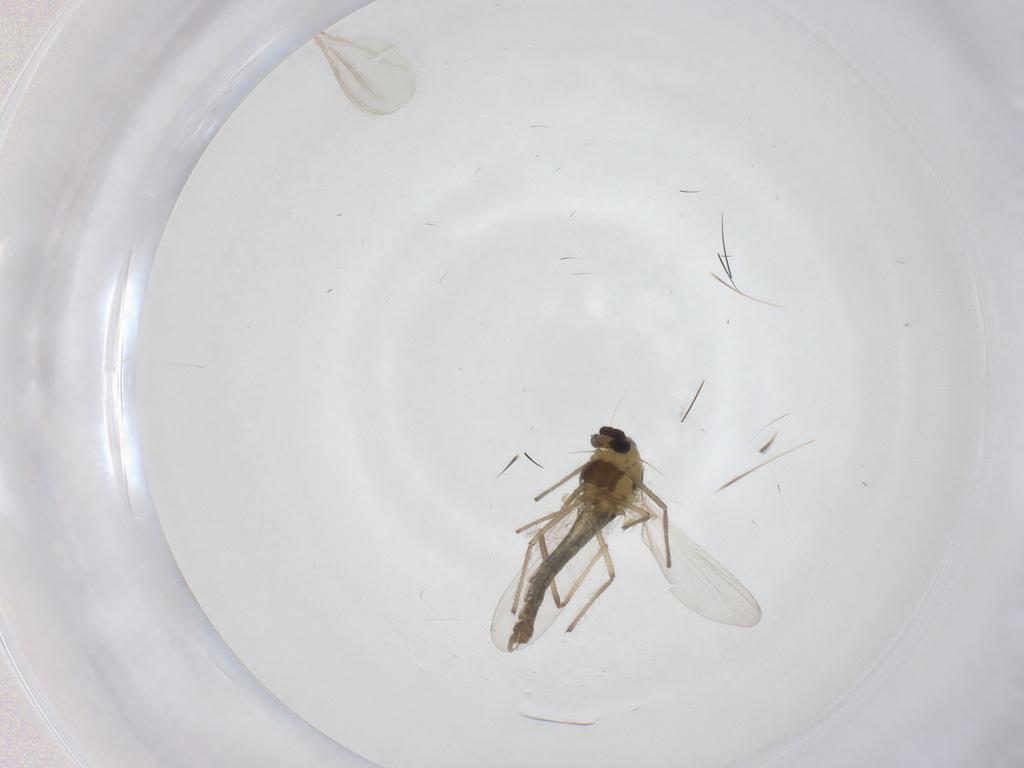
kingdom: Animalia
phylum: Arthropoda
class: Insecta
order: Diptera
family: Chironomidae
